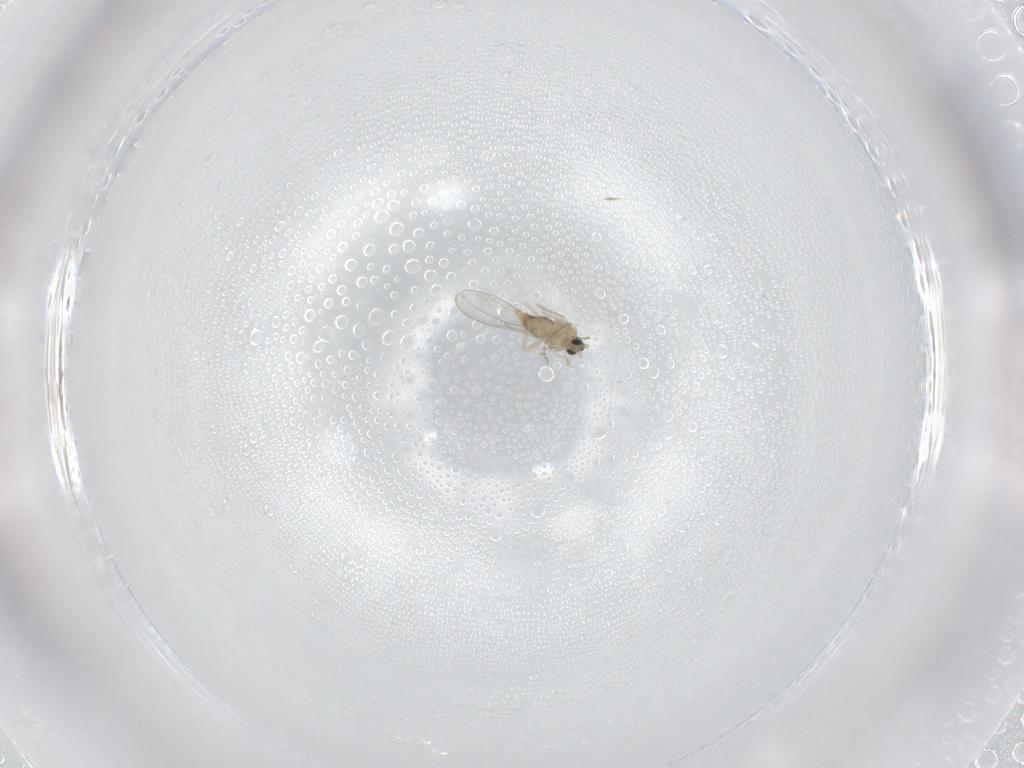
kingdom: Animalia
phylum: Arthropoda
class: Insecta
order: Diptera
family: Cecidomyiidae
